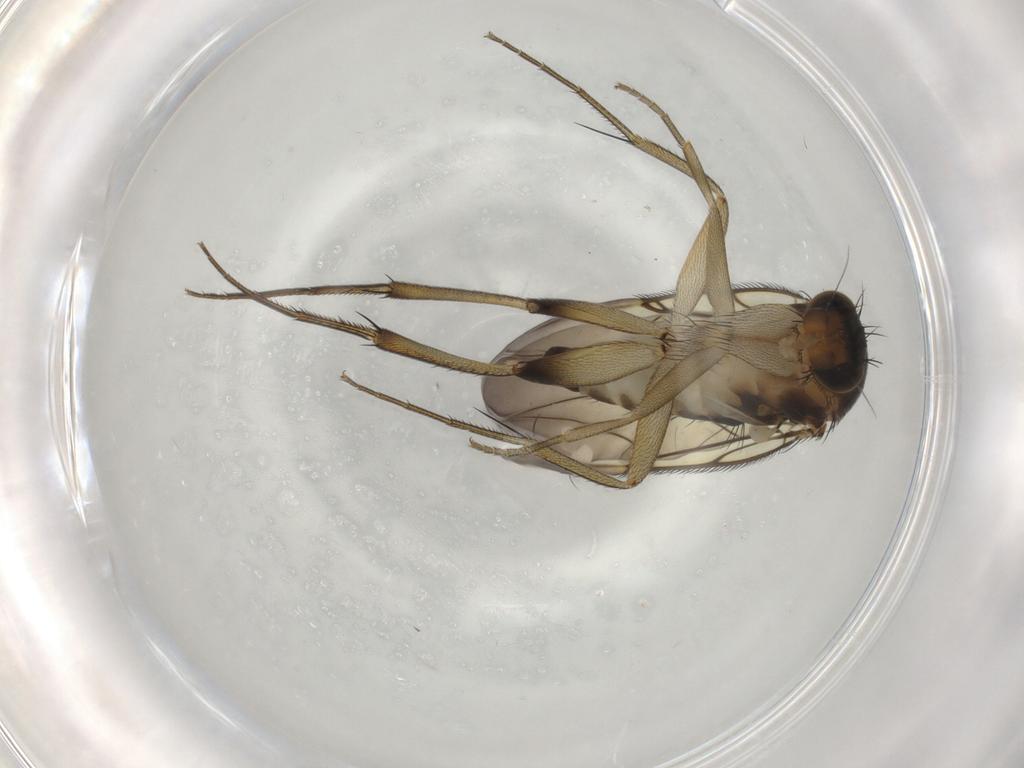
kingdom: Animalia
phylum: Arthropoda
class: Insecta
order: Diptera
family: Phoridae
